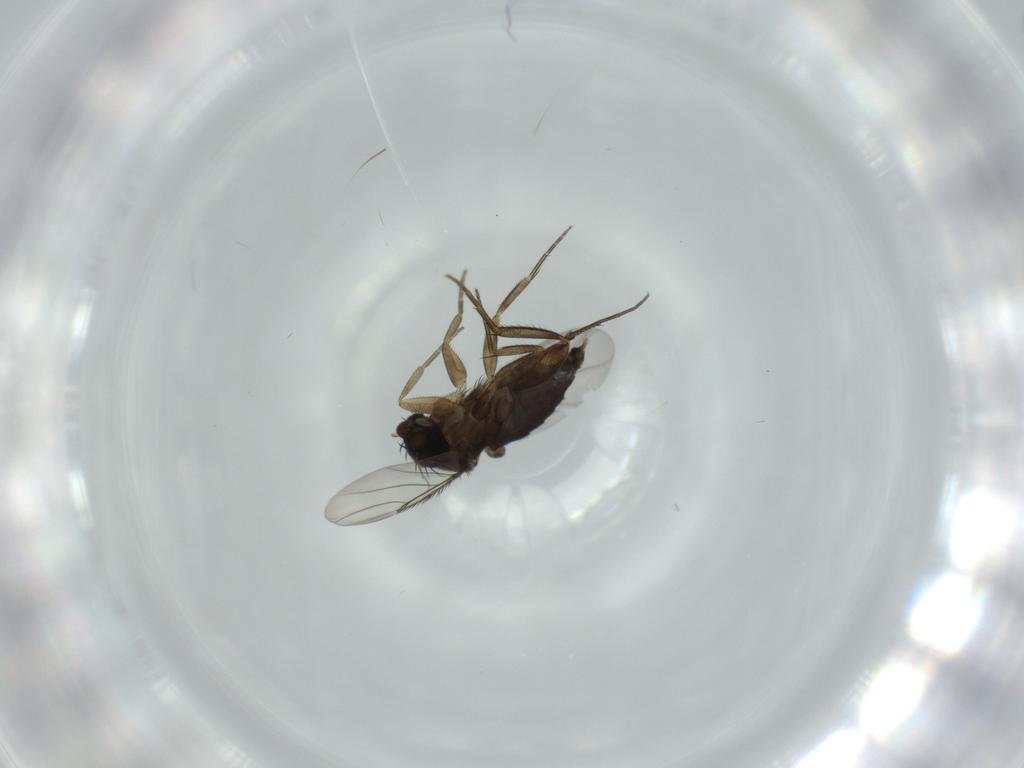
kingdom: Animalia
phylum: Arthropoda
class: Insecta
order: Diptera
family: Phoridae
